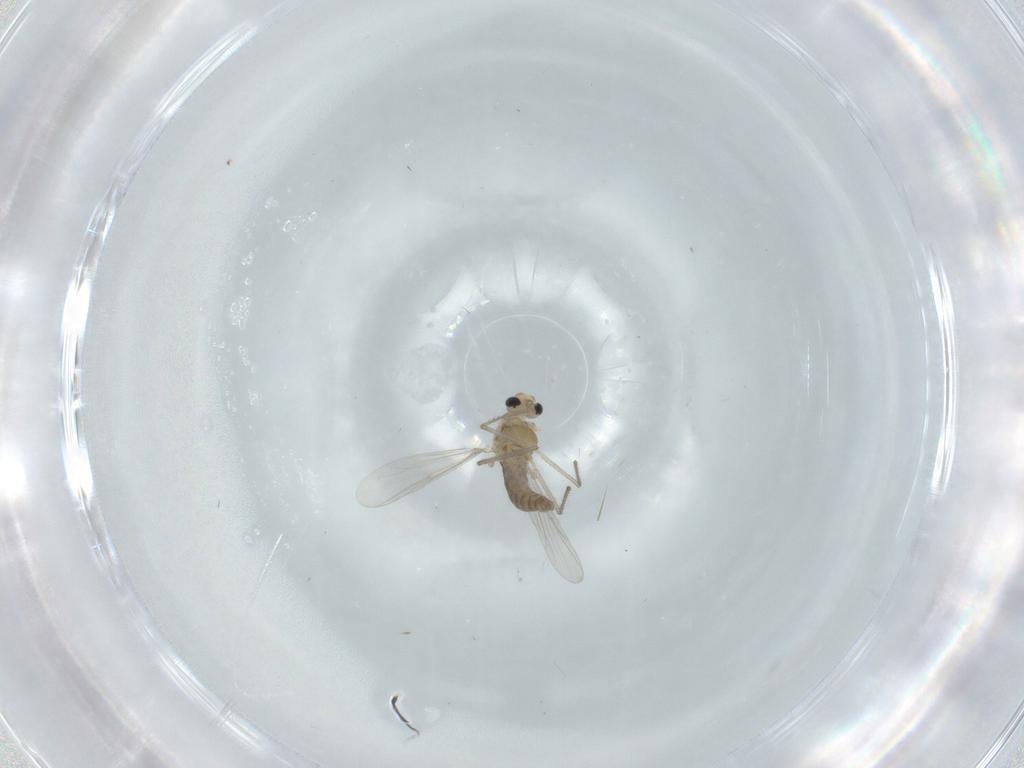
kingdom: Animalia
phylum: Arthropoda
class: Insecta
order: Diptera
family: Chironomidae
